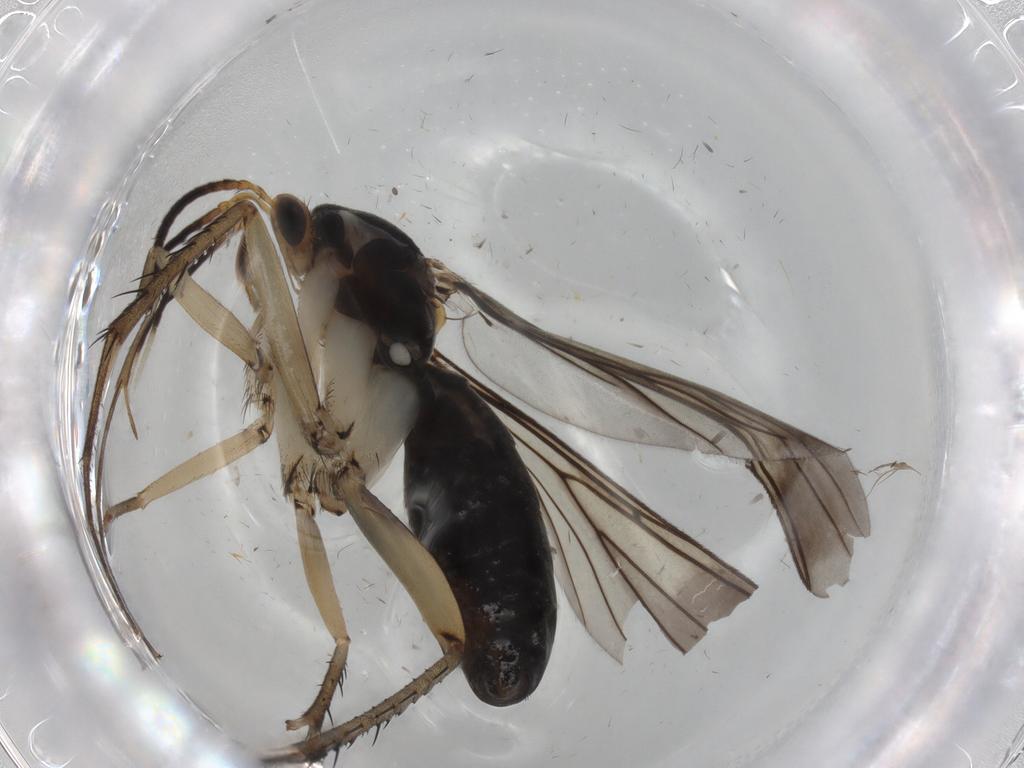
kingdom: Animalia
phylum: Arthropoda
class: Insecta
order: Diptera
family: Mycetophilidae
